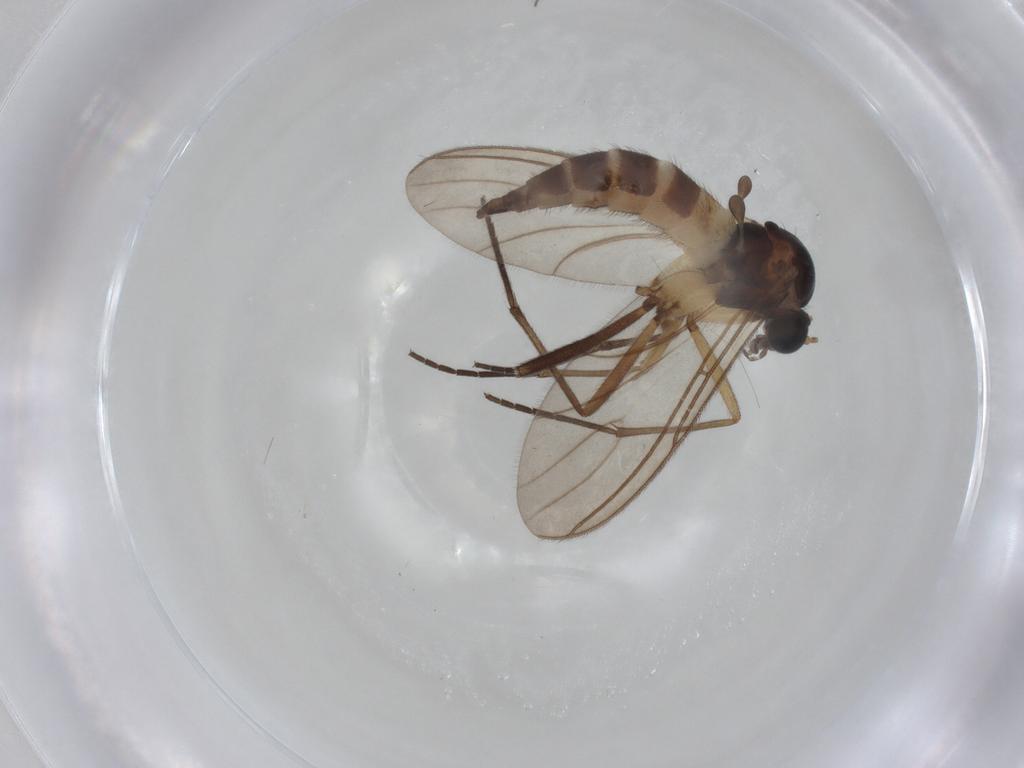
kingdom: Animalia
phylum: Arthropoda
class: Insecta
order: Diptera
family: Sciaridae
